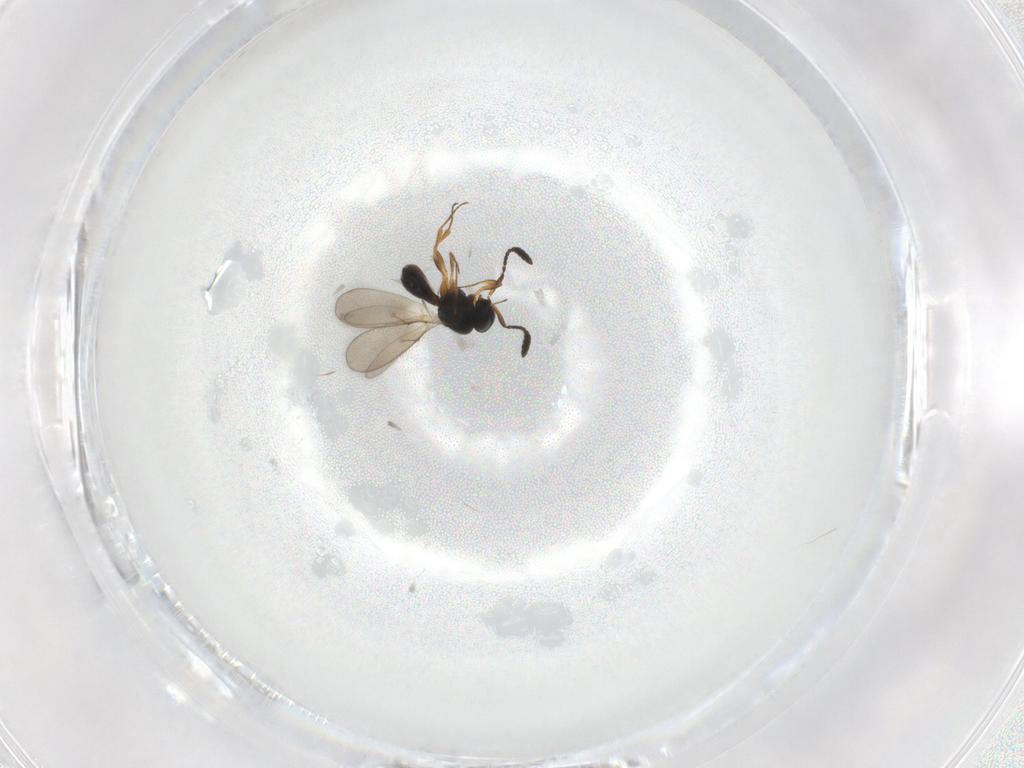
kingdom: Animalia
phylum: Arthropoda
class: Insecta
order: Hymenoptera
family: Scelionidae
